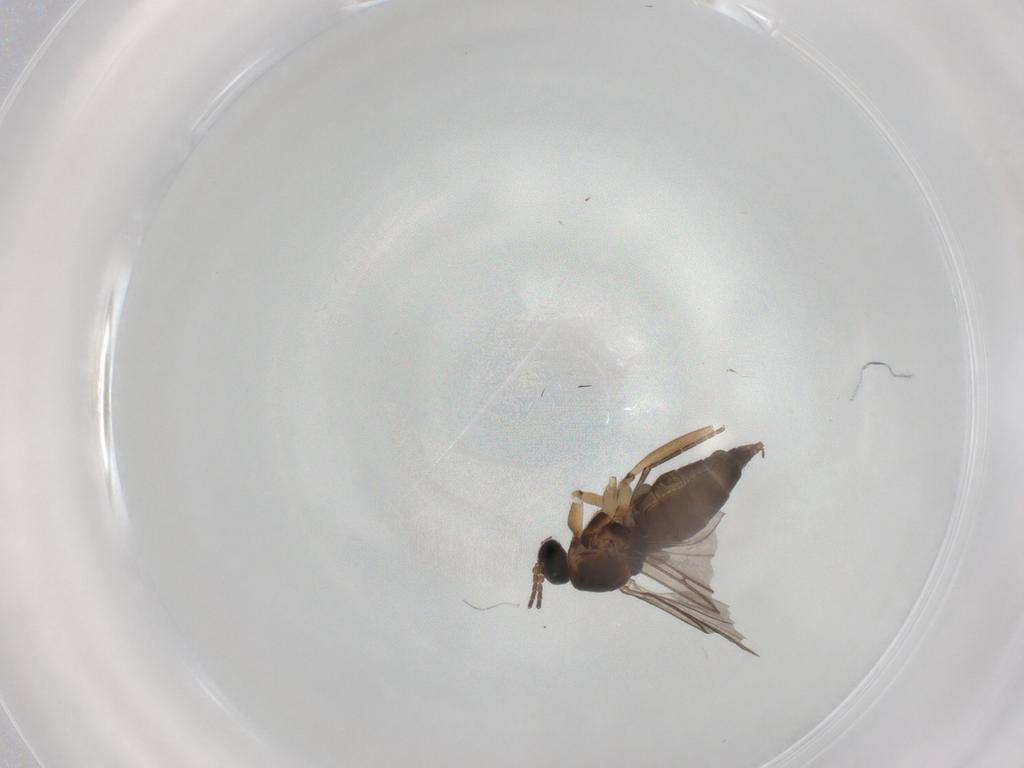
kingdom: Animalia
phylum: Arthropoda
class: Insecta
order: Diptera
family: Sciaridae
